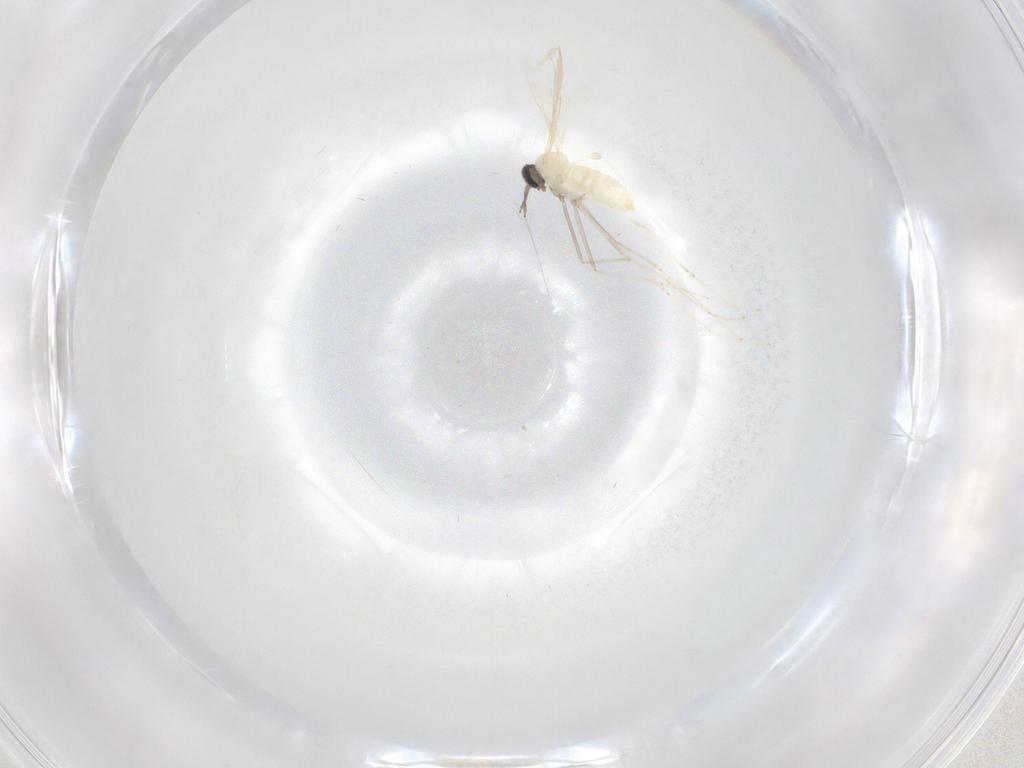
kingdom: Animalia
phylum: Arthropoda
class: Insecta
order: Diptera
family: Cecidomyiidae
